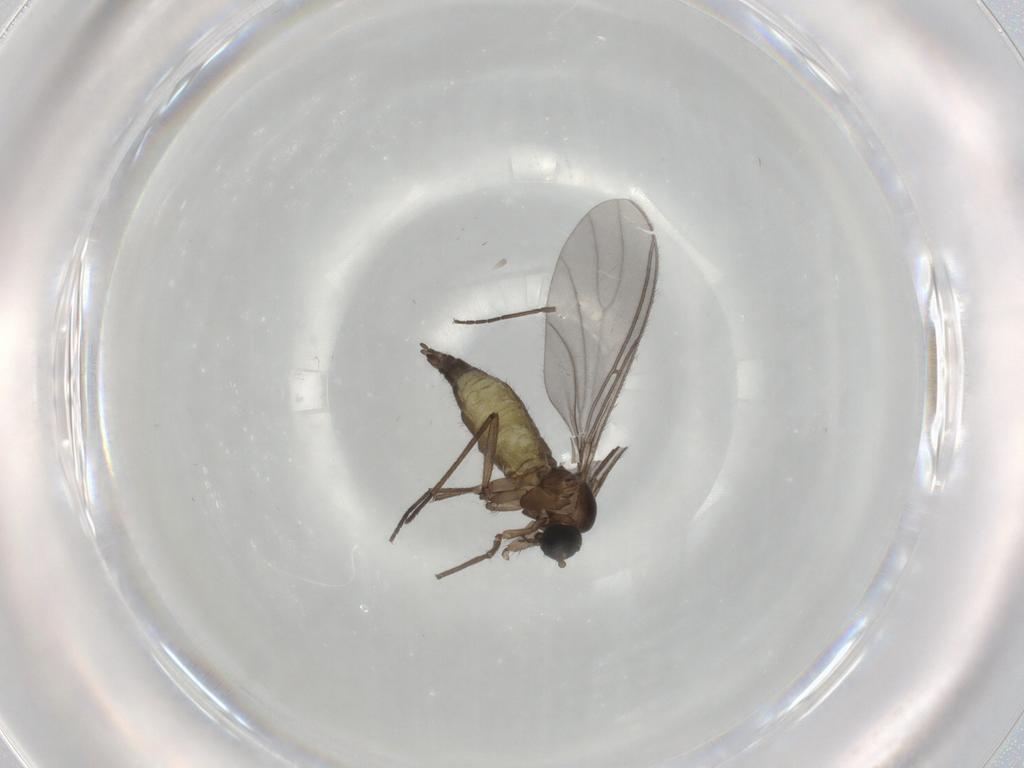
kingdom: Animalia
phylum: Arthropoda
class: Insecta
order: Diptera
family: Sciaridae
